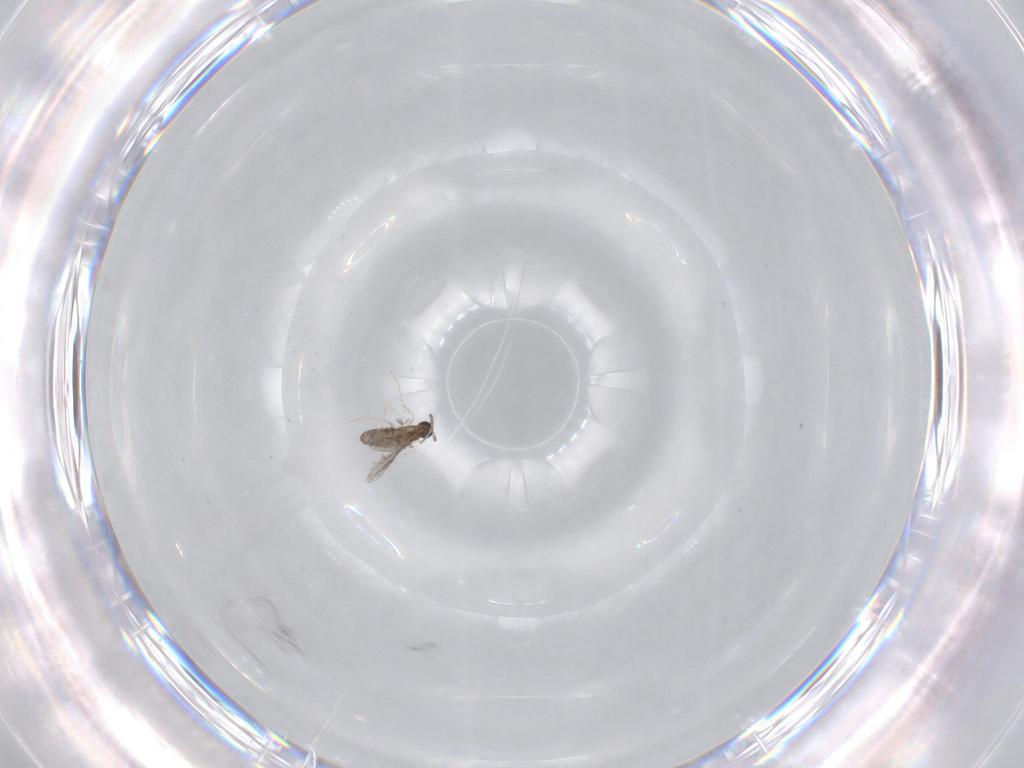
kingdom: Animalia
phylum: Arthropoda
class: Insecta
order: Diptera
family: Cecidomyiidae
